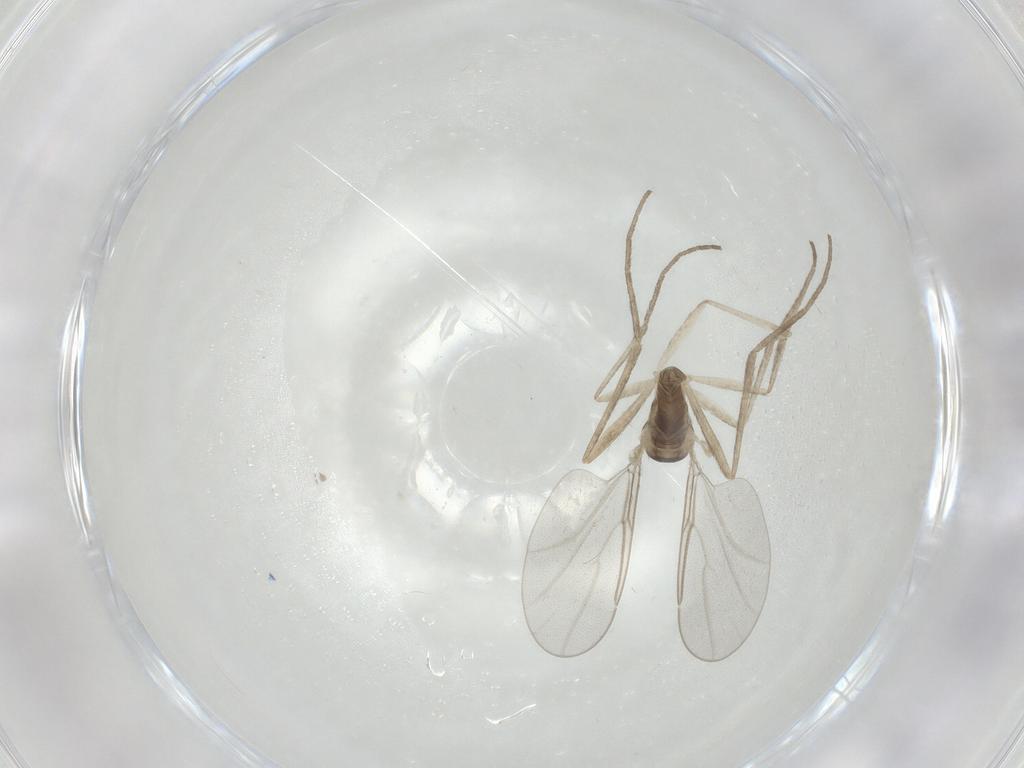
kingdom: Animalia
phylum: Arthropoda
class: Insecta
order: Diptera
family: Cecidomyiidae
